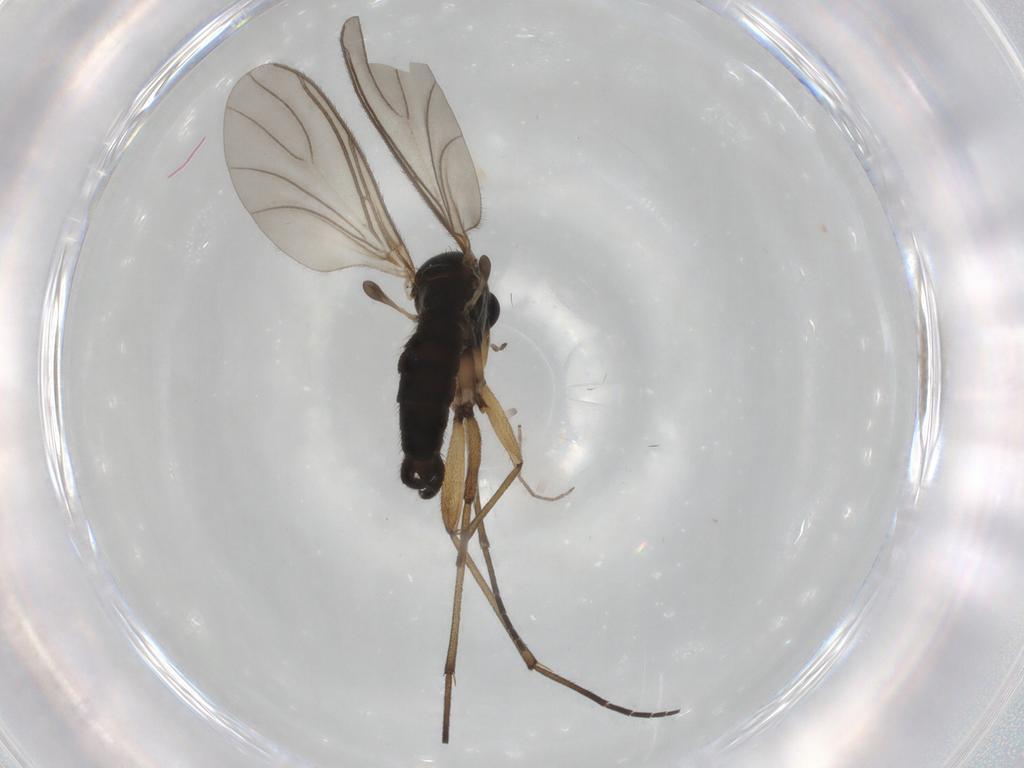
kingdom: Animalia
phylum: Arthropoda
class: Insecta
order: Diptera
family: Sciaridae
